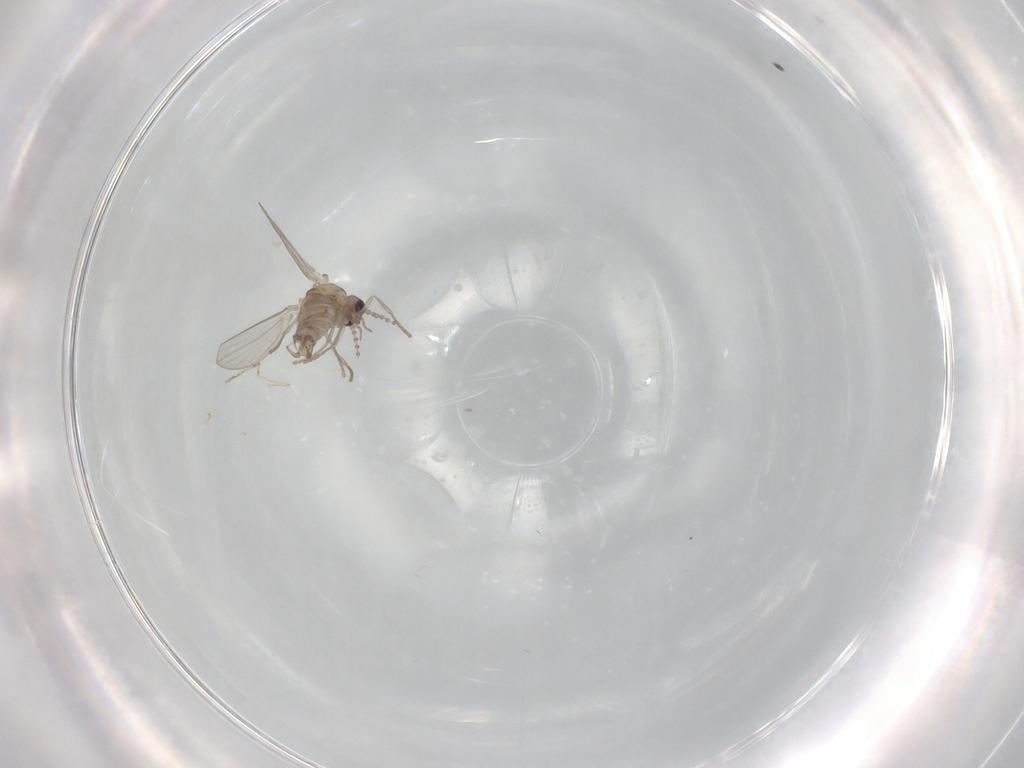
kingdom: Animalia
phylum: Arthropoda
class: Insecta
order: Diptera
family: Psychodidae
